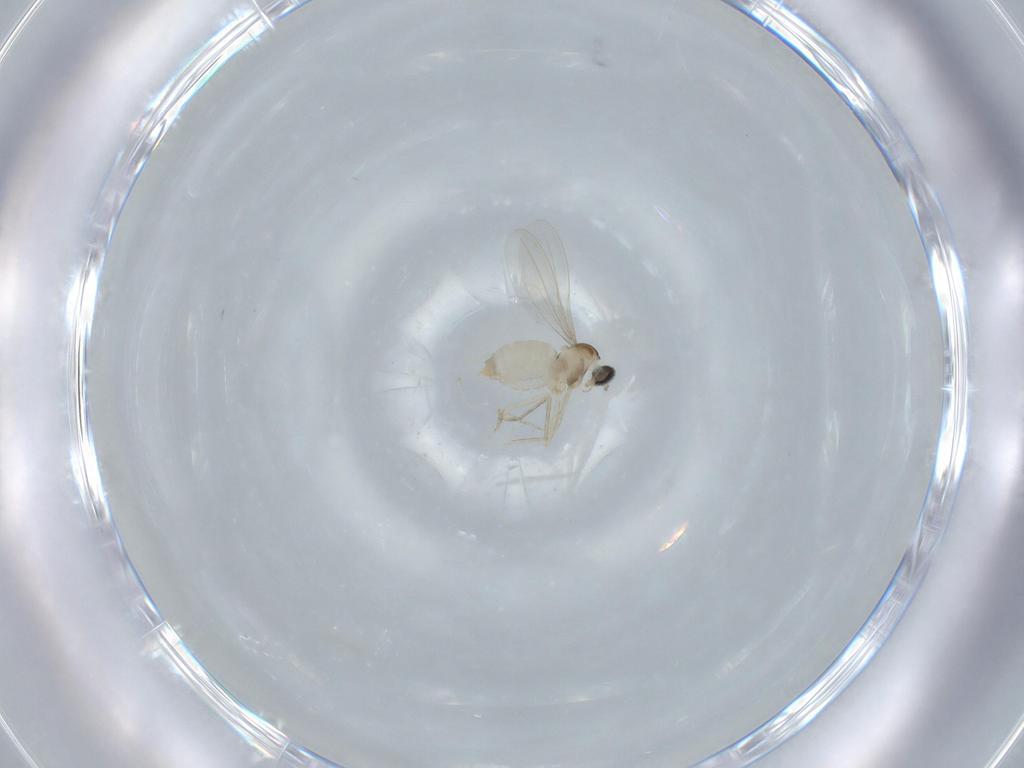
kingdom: Animalia
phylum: Arthropoda
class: Insecta
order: Diptera
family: Cecidomyiidae
